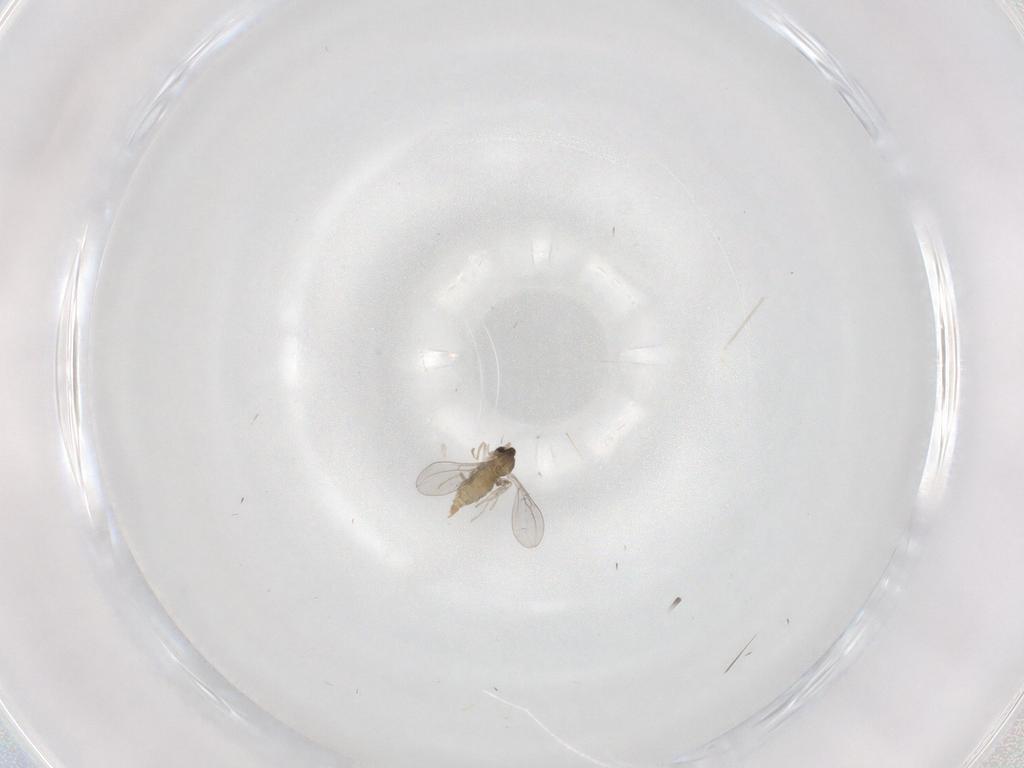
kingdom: Animalia
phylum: Arthropoda
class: Insecta
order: Diptera
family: Cecidomyiidae
